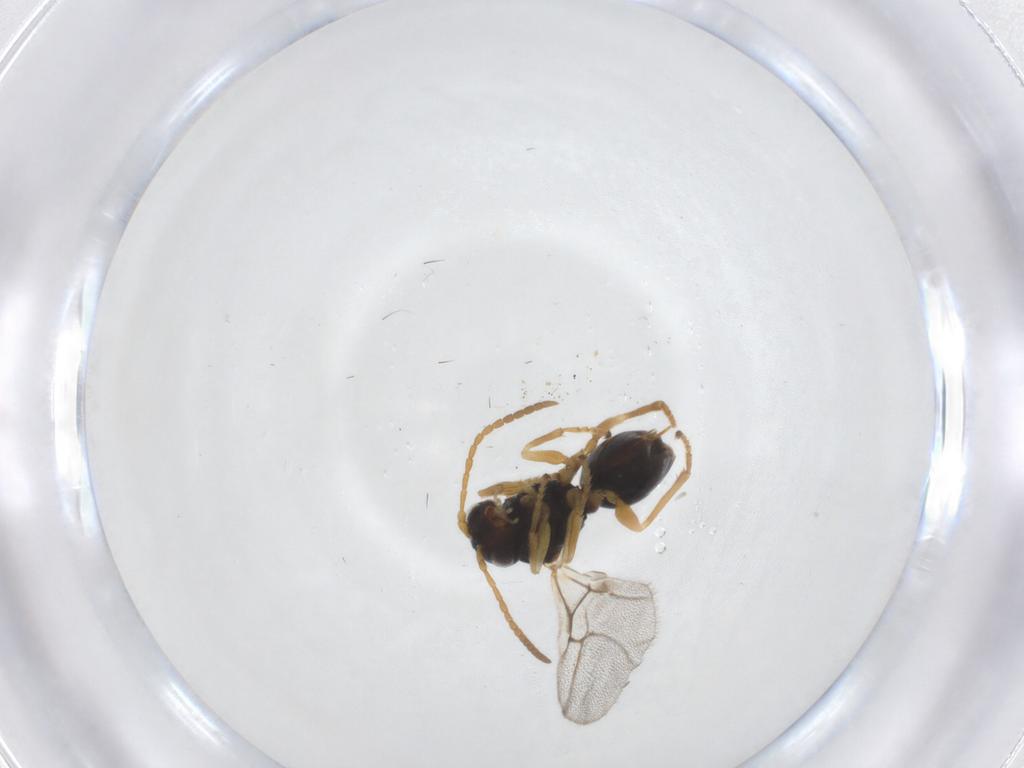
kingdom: Animalia
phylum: Arthropoda
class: Insecta
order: Hymenoptera
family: Cynipidae
